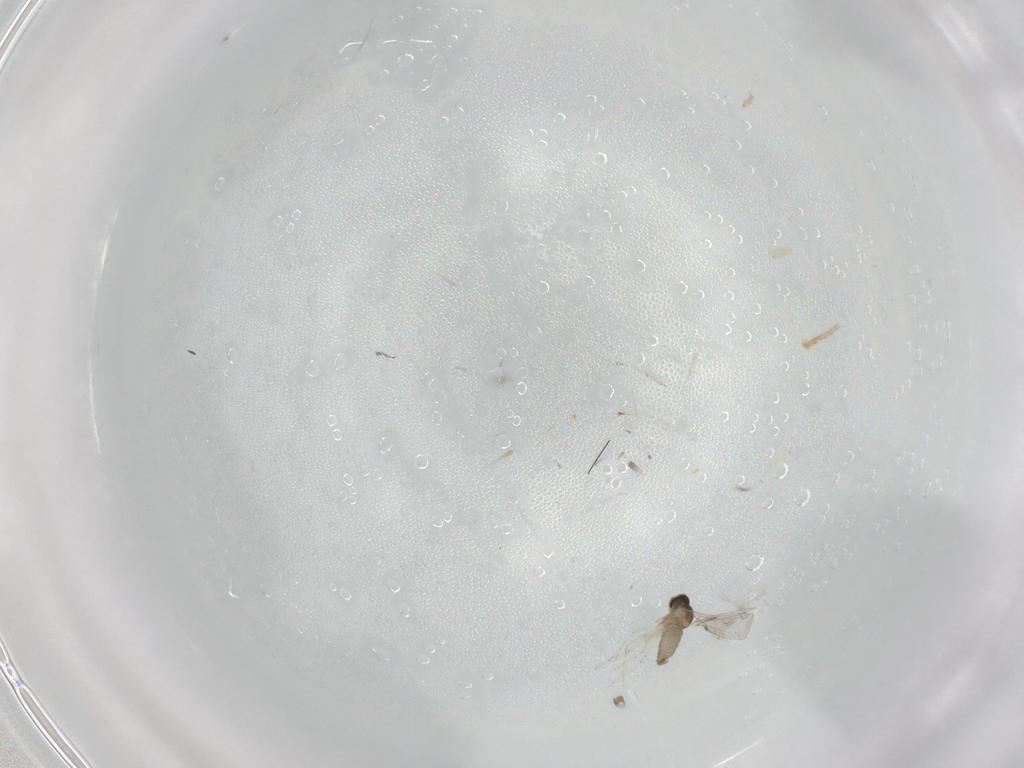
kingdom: Animalia
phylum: Arthropoda
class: Insecta
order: Diptera
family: Cecidomyiidae
